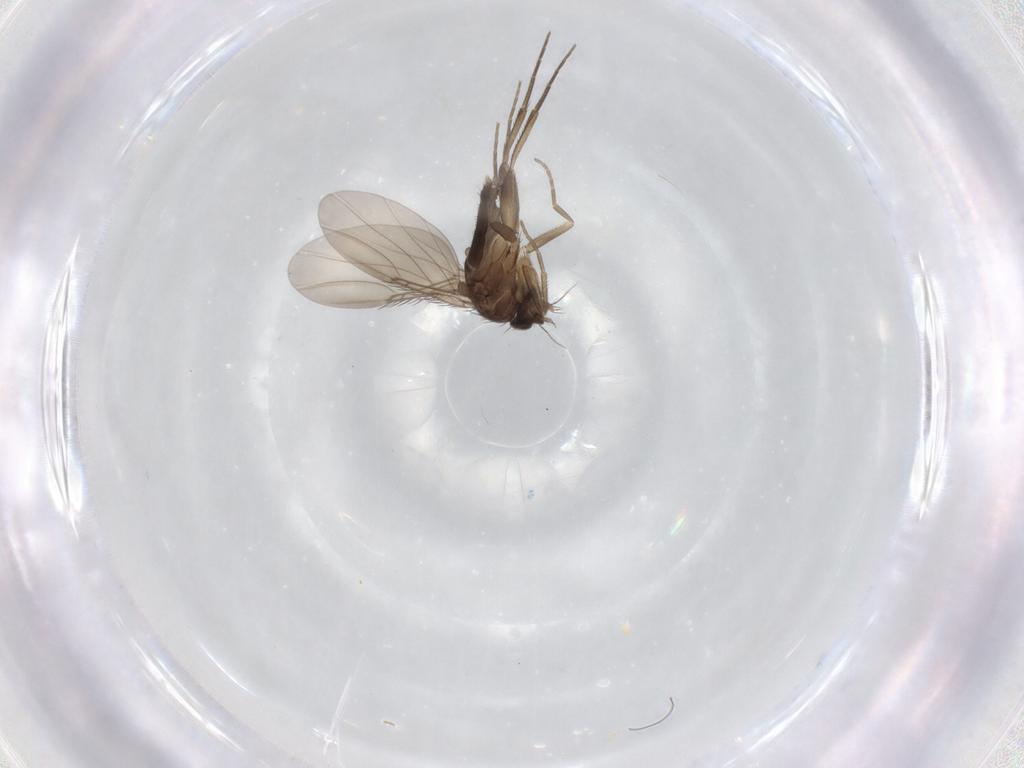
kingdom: Animalia
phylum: Arthropoda
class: Insecta
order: Diptera
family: Phoridae
